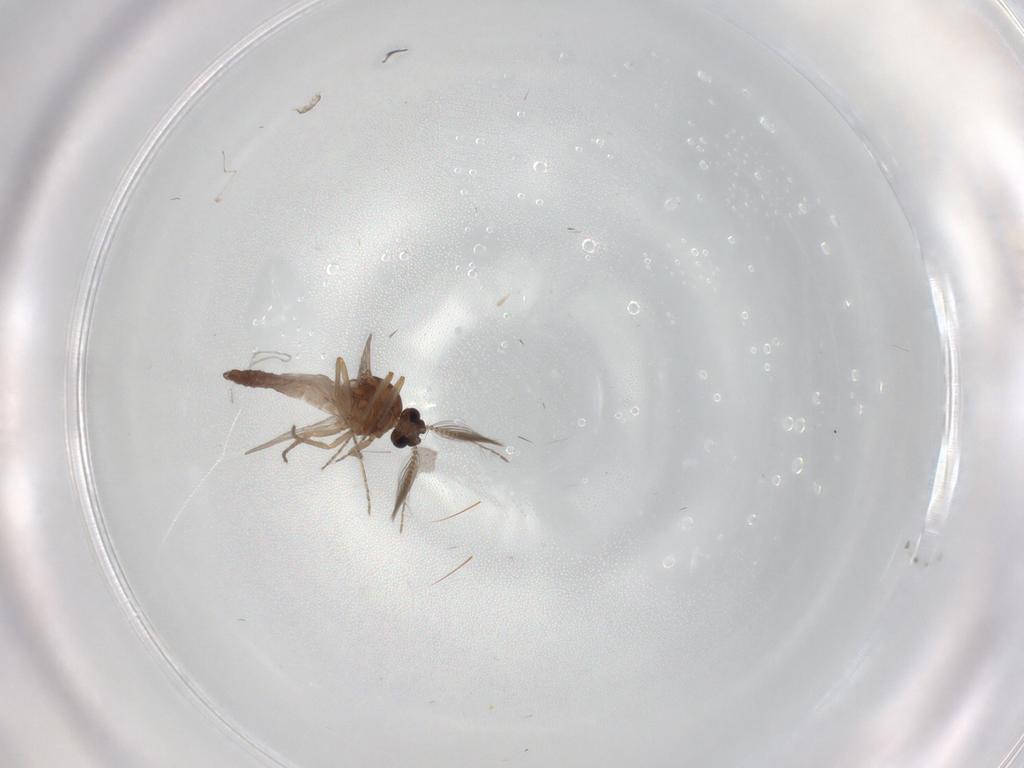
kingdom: Animalia
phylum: Arthropoda
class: Insecta
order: Diptera
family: Ceratopogonidae
